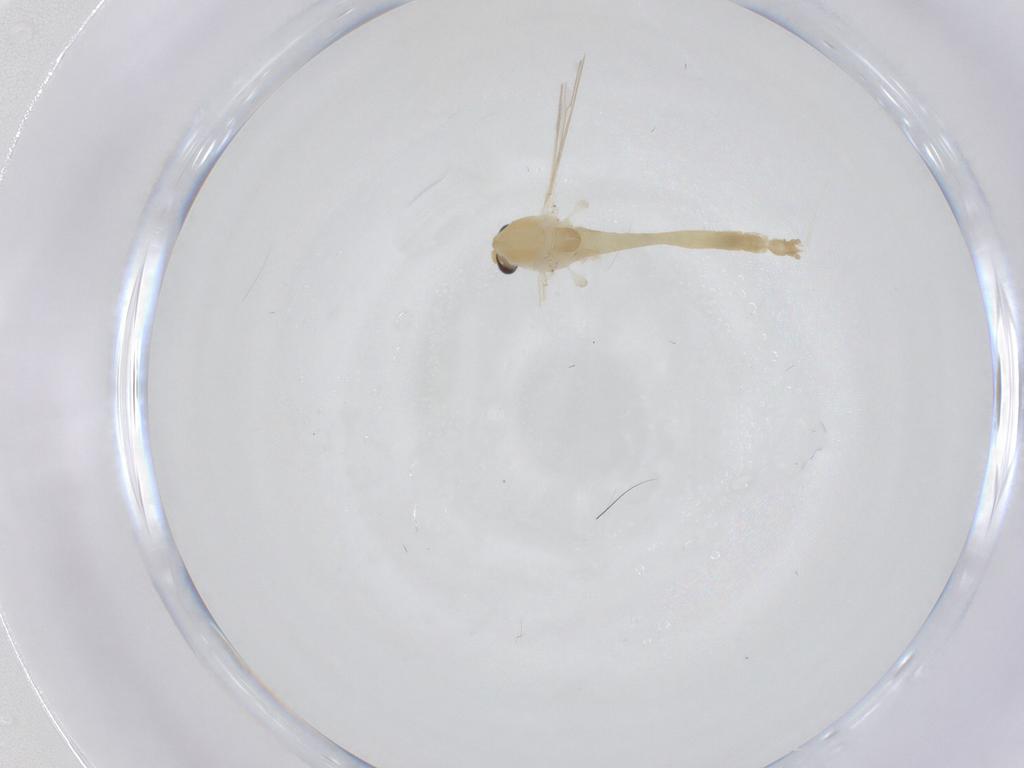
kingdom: Animalia
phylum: Arthropoda
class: Insecta
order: Diptera
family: Chironomidae
